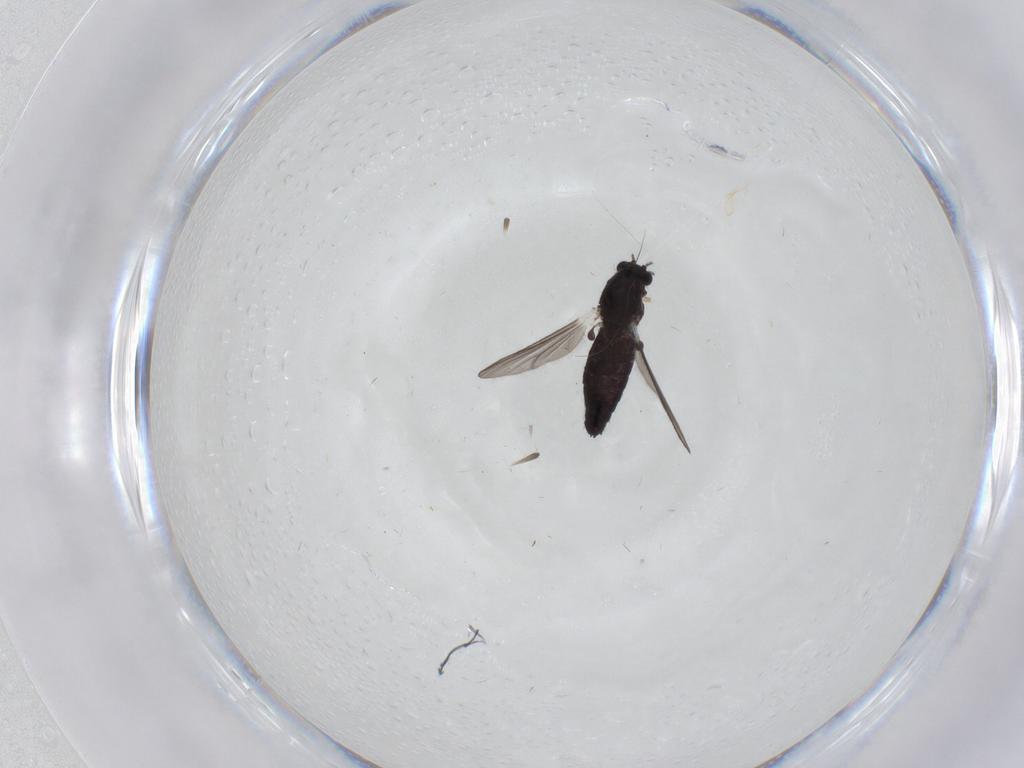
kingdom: Animalia
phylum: Arthropoda
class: Insecta
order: Diptera
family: Chironomidae
